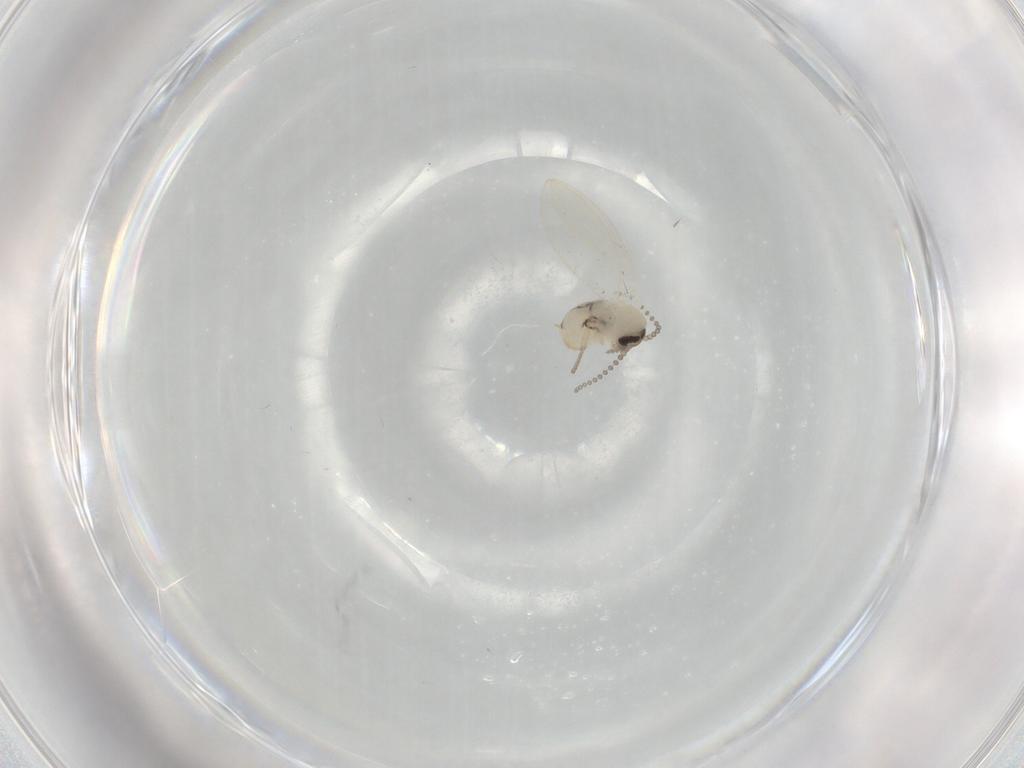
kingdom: Animalia
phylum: Arthropoda
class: Insecta
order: Diptera
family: Psychodidae
